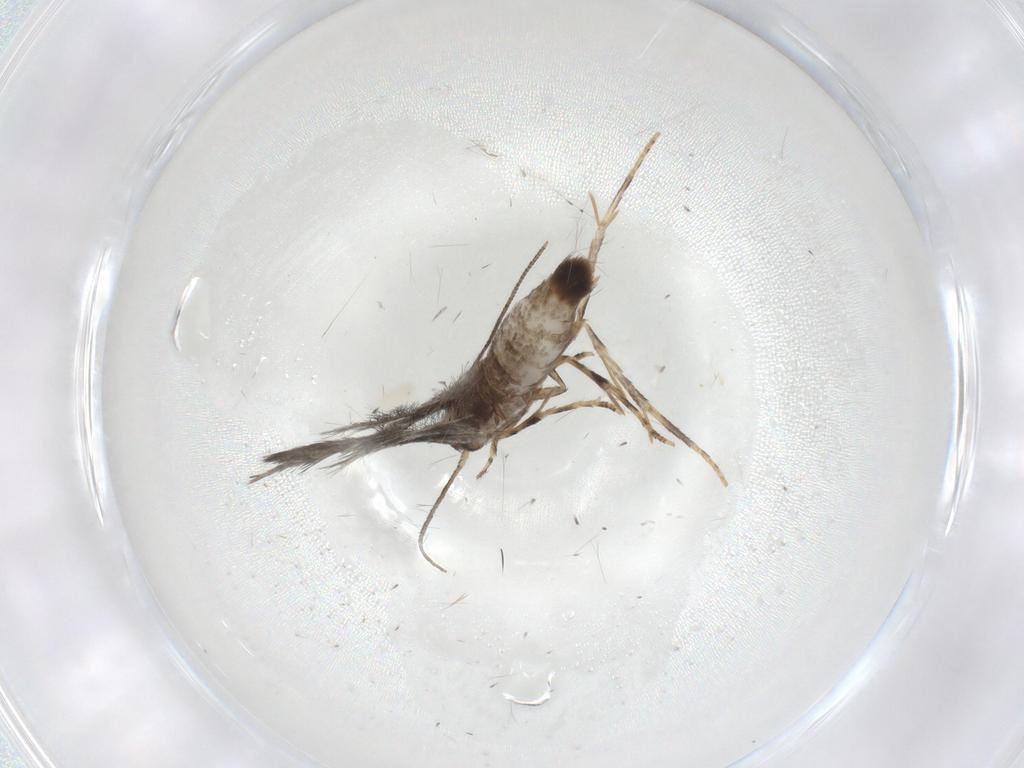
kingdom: Animalia
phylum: Arthropoda
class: Insecta
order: Lepidoptera
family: Elachistidae
